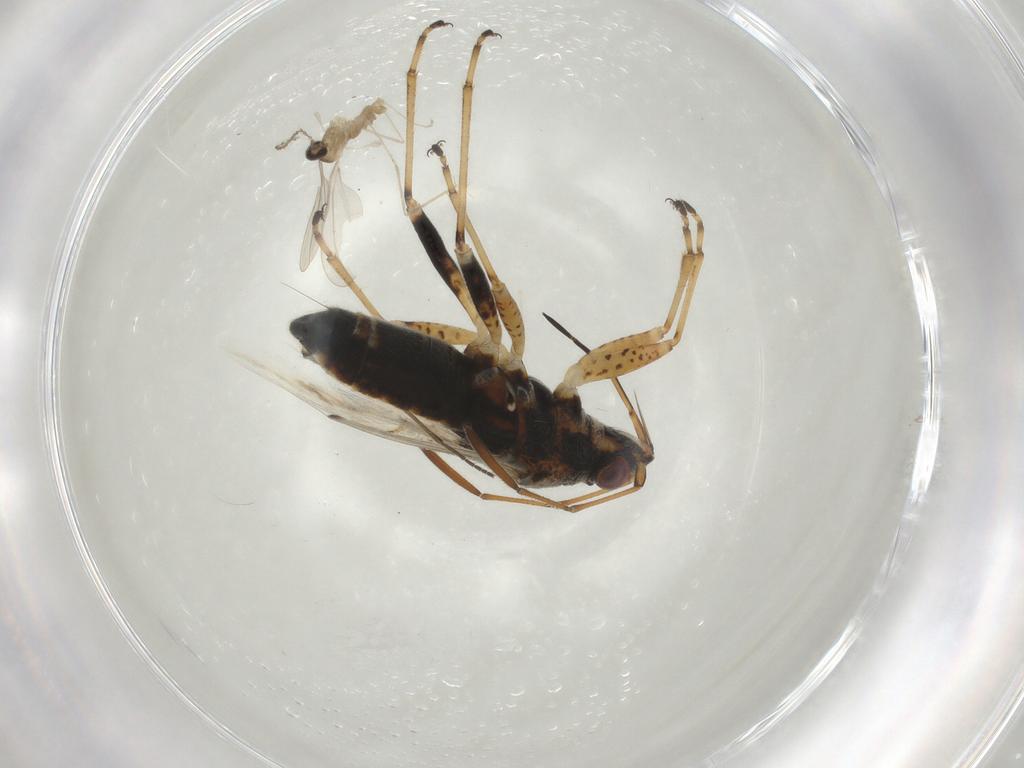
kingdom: Animalia
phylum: Arthropoda
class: Insecta
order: Diptera
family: Cecidomyiidae
